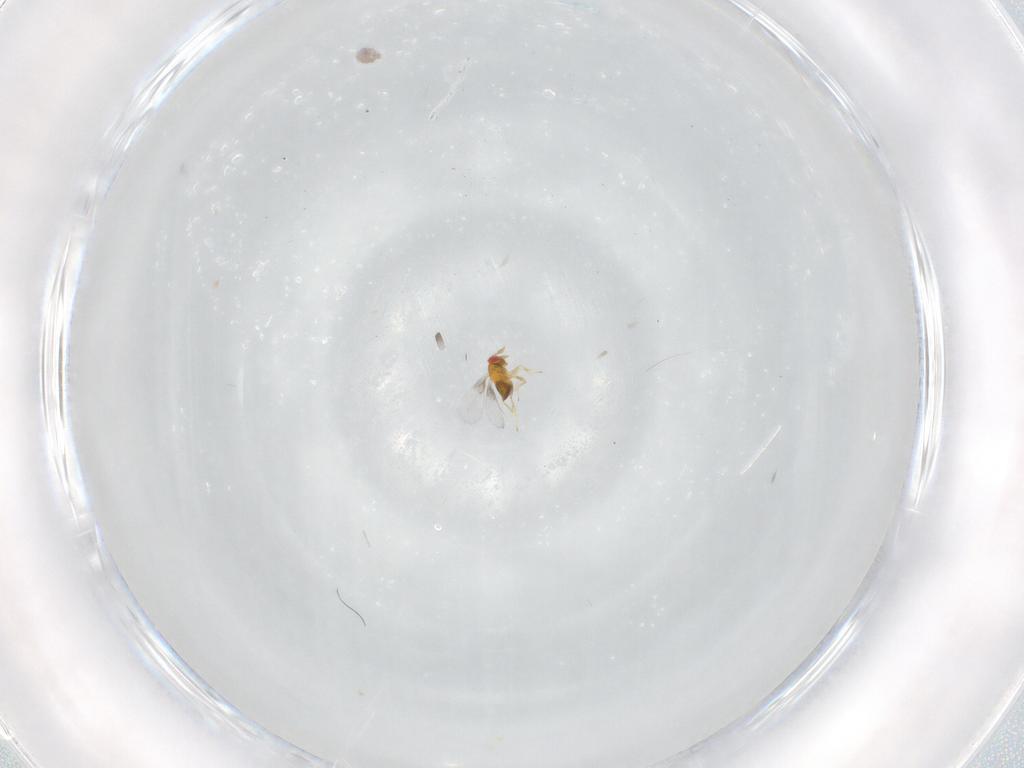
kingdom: Animalia
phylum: Arthropoda
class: Insecta
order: Hymenoptera
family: Trichogrammatidae
